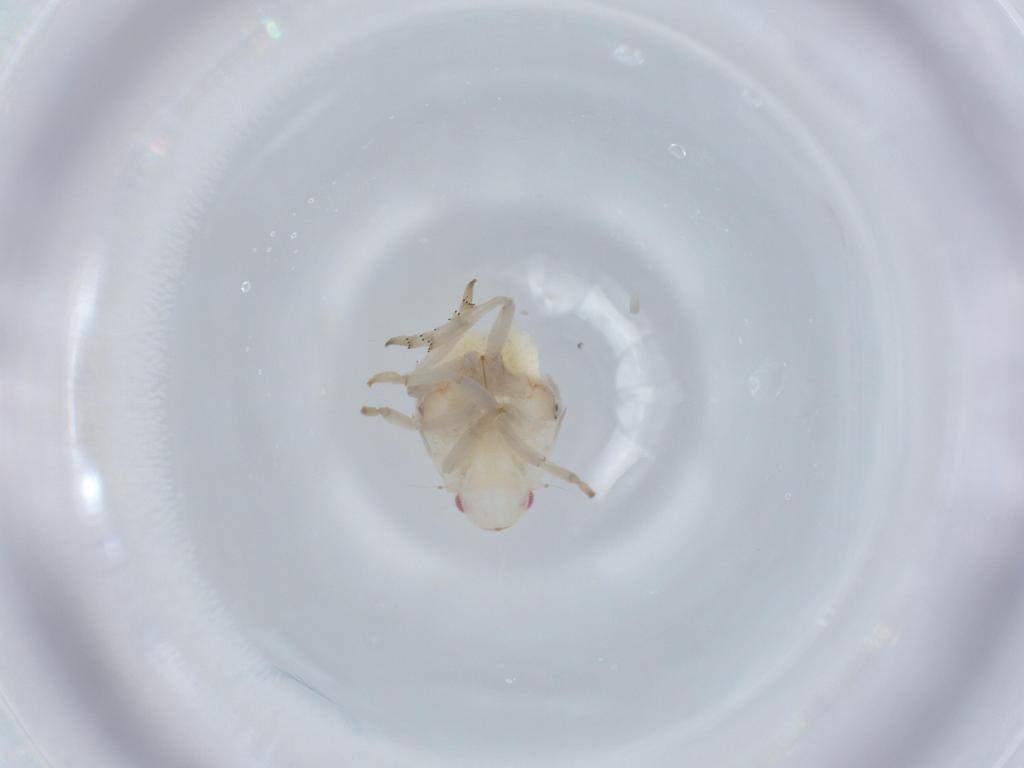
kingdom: Animalia
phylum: Arthropoda
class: Insecta
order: Hemiptera
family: Flatidae
